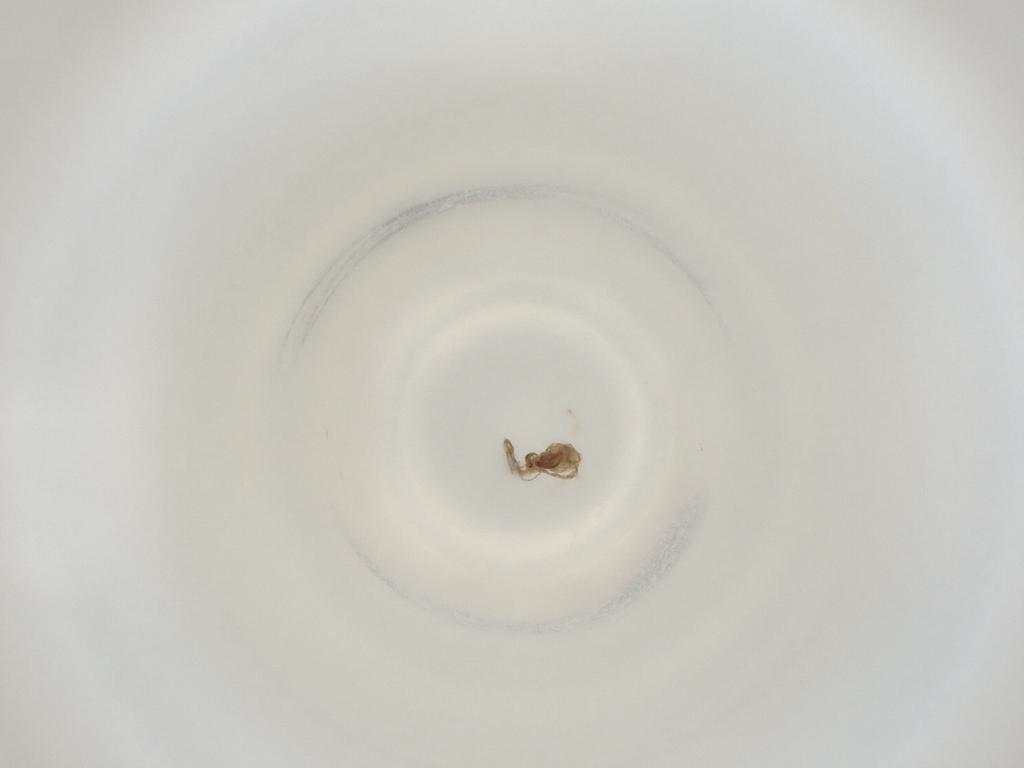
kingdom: Animalia
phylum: Arthropoda
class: Insecta
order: Diptera
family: Cecidomyiidae
